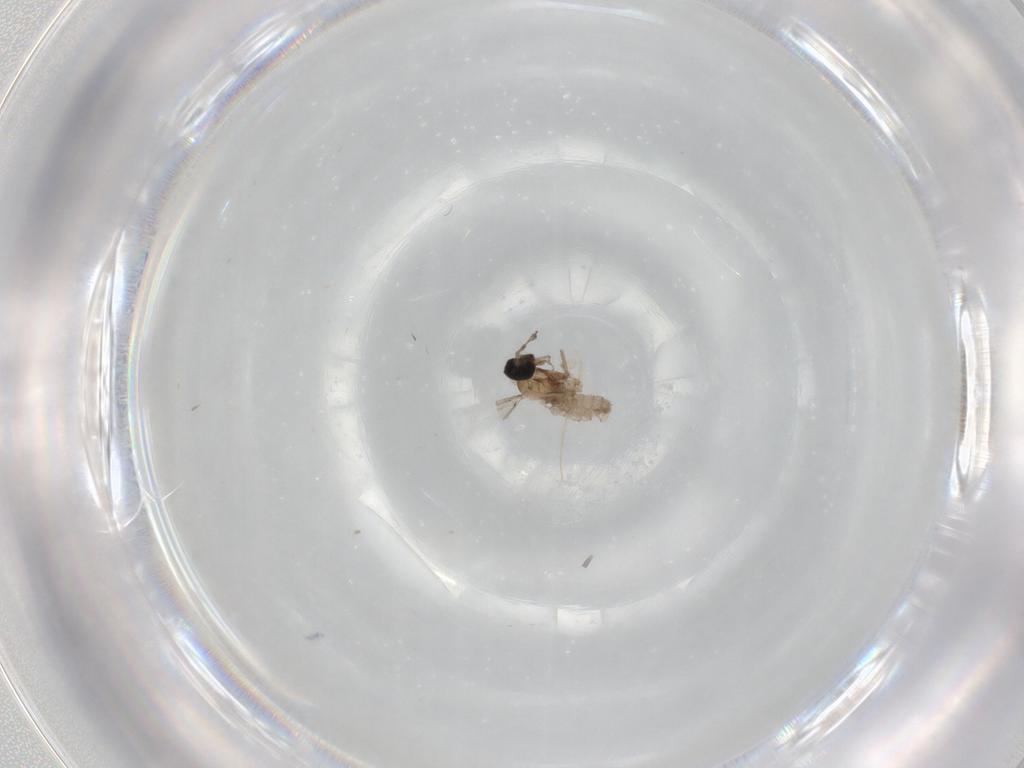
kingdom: Animalia
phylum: Arthropoda
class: Insecta
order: Diptera
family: Cecidomyiidae
